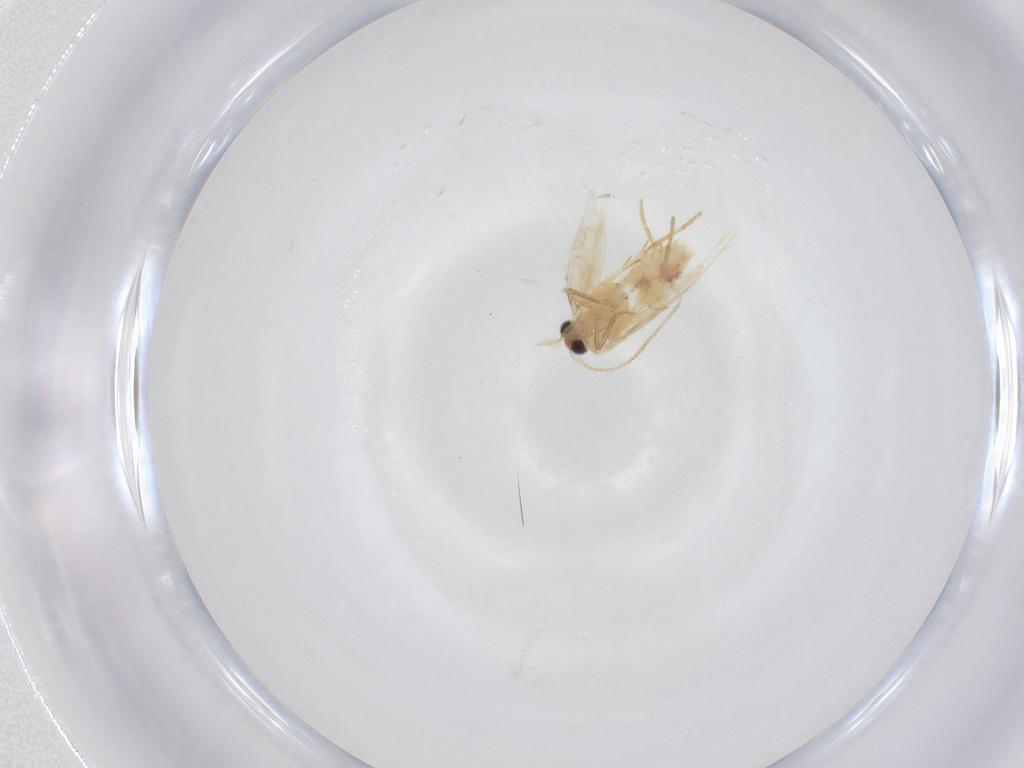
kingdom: Animalia
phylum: Arthropoda
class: Insecta
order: Lepidoptera
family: Nepticulidae
